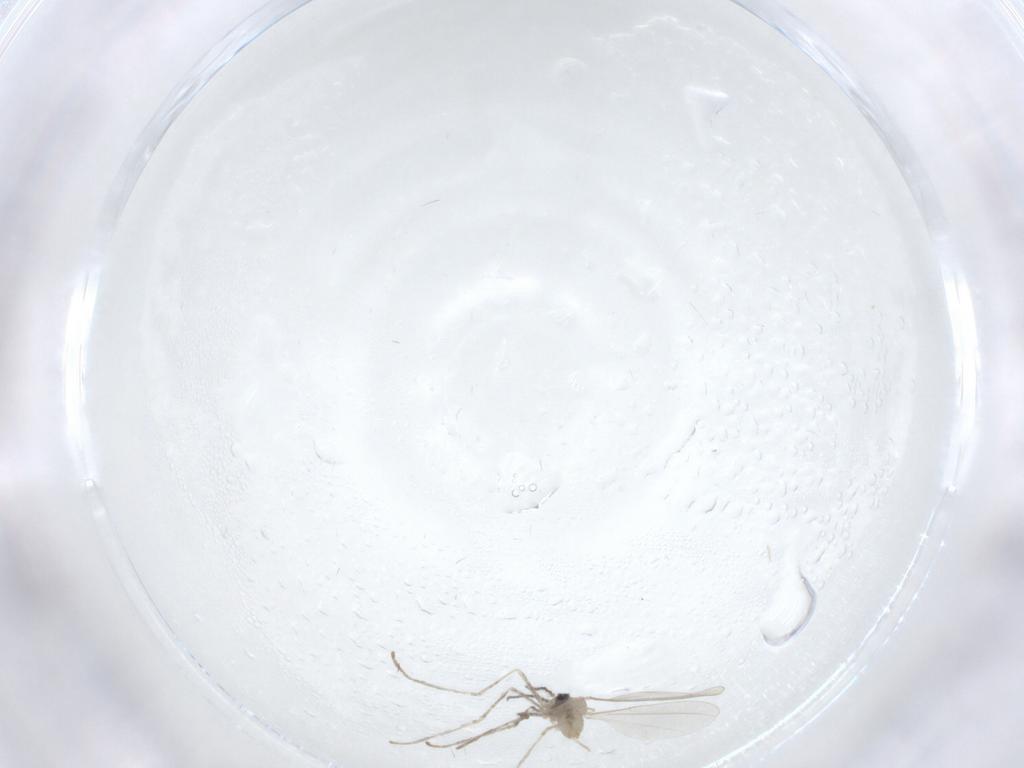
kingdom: Animalia
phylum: Arthropoda
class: Insecta
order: Diptera
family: Cecidomyiidae
